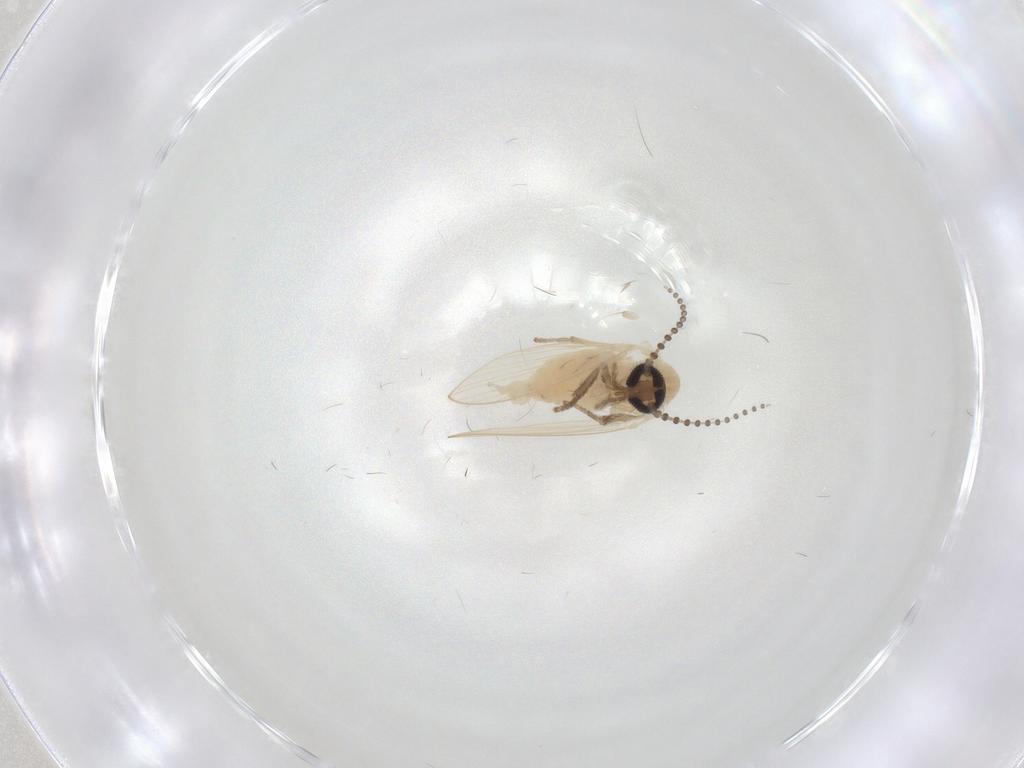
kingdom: Animalia
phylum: Arthropoda
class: Insecta
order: Diptera
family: Psychodidae
